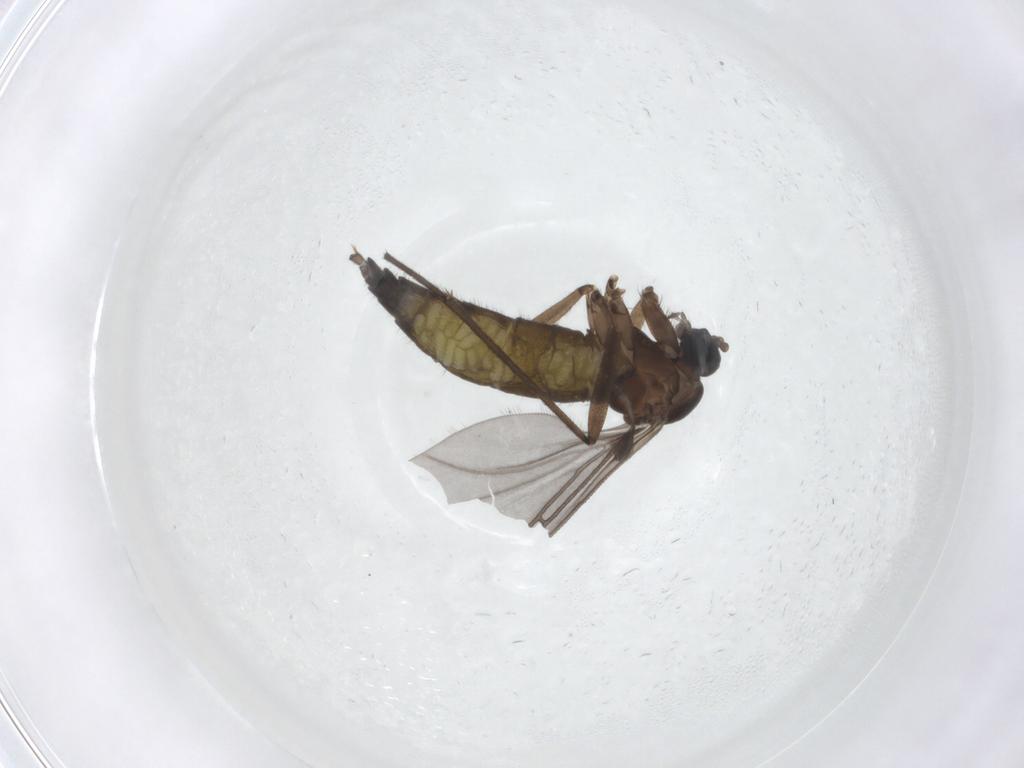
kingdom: Animalia
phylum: Arthropoda
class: Insecta
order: Diptera
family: Sciaridae
